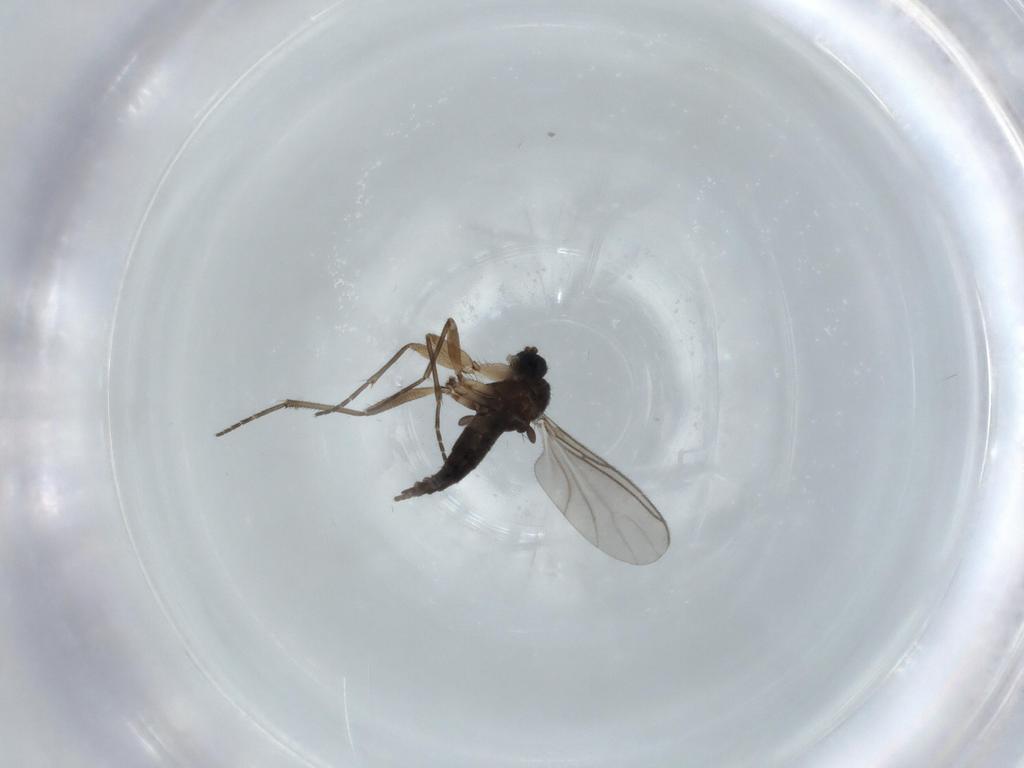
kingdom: Animalia
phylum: Arthropoda
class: Insecta
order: Diptera
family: Sciaridae
